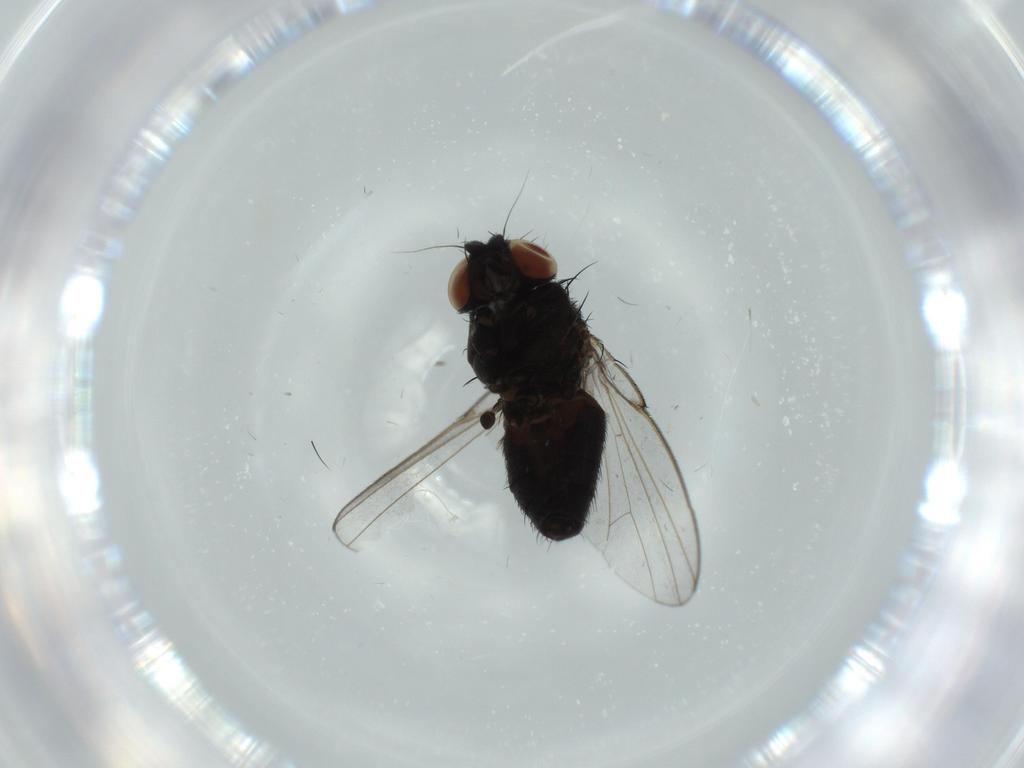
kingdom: Animalia
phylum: Arthropoda
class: Insecta
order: Diptera
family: Milichiidae
